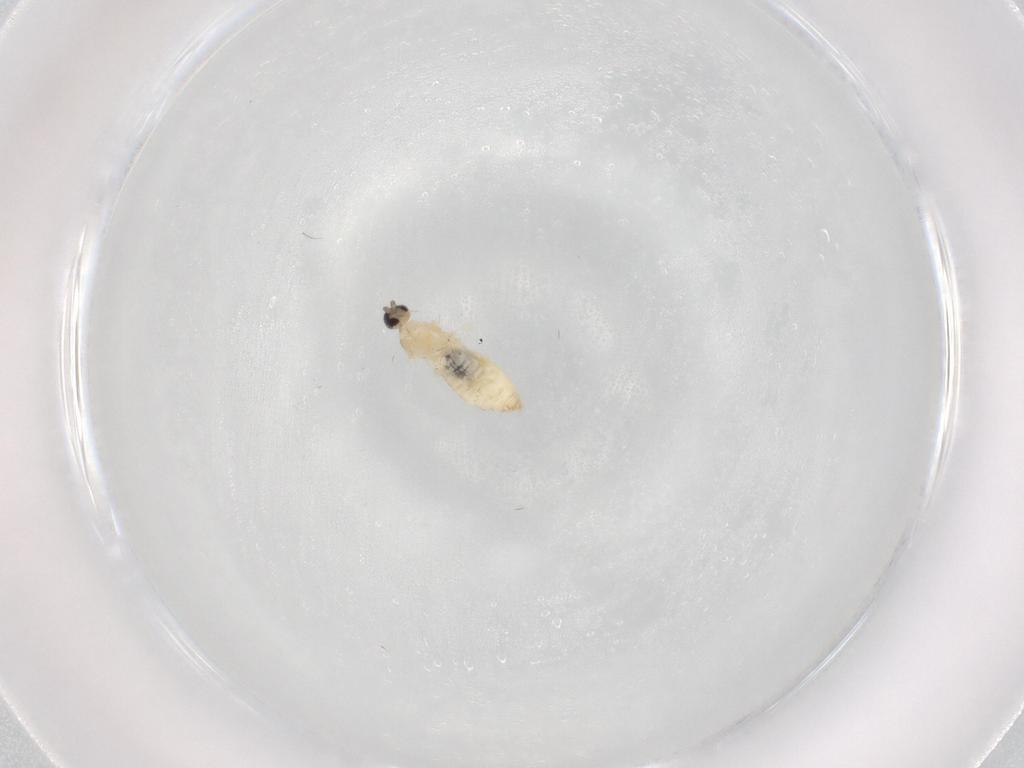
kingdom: Animalia
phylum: Arthropoda
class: Insecta
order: Diptera
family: Cecidomyiidae
